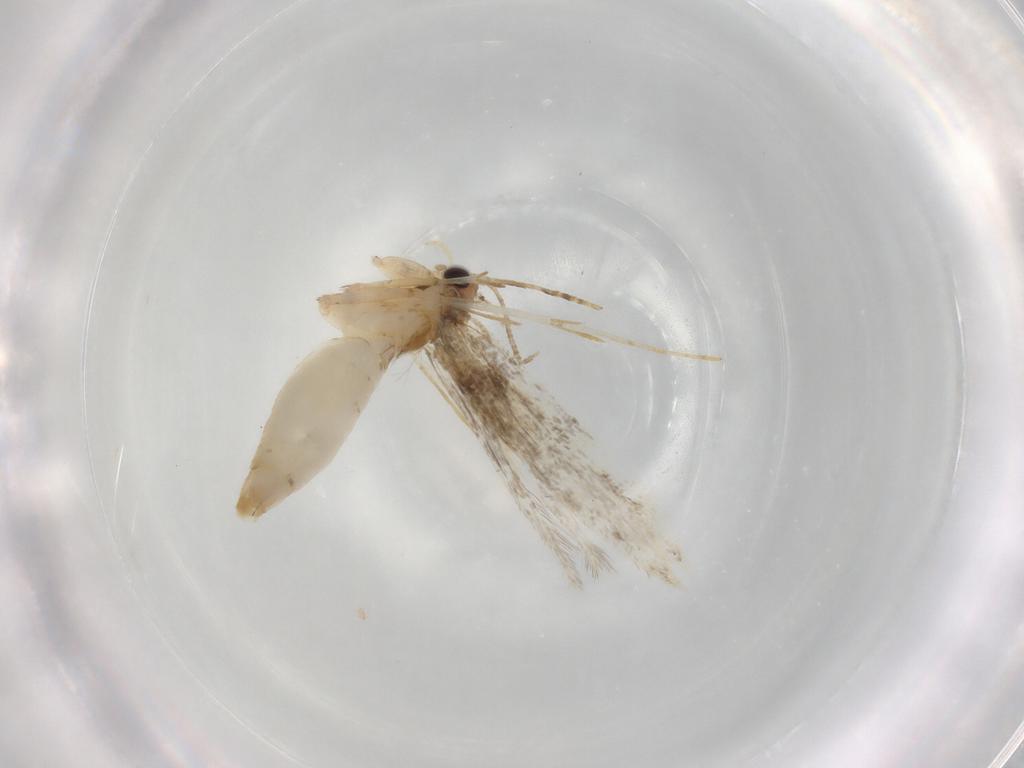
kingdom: Animalia
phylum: Arthropoda
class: Insecta
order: Lepidoptera
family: Tineidae
